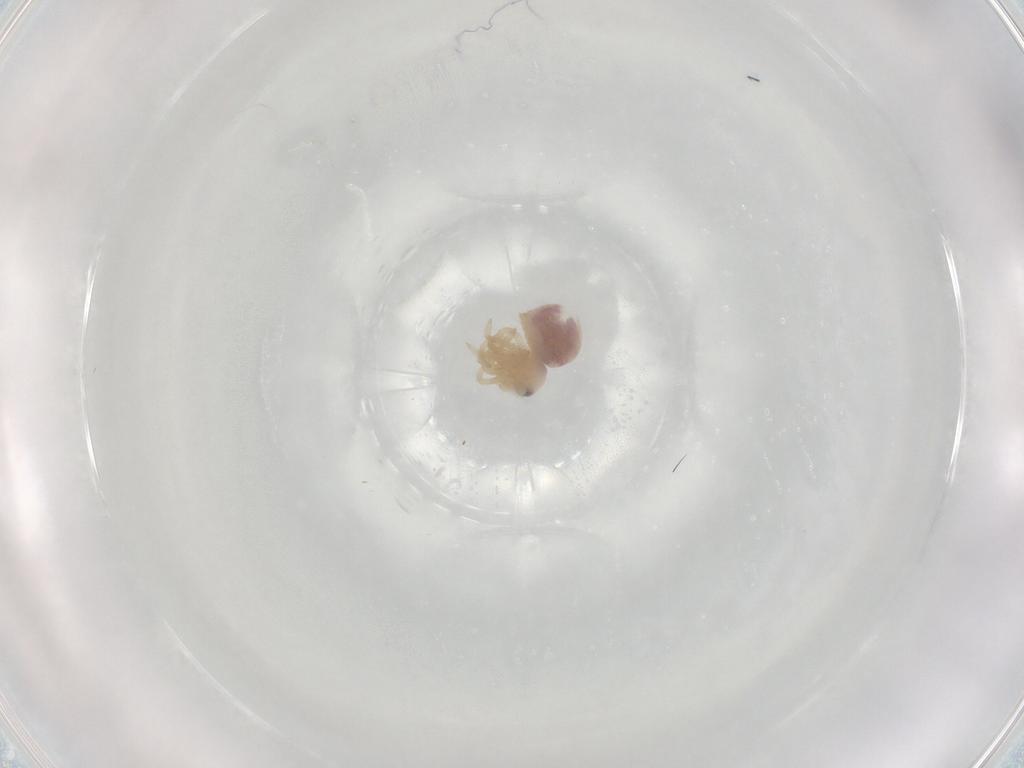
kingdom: Animalia
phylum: Arthropoda
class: Arachnida
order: Araneae
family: Pholcidae
